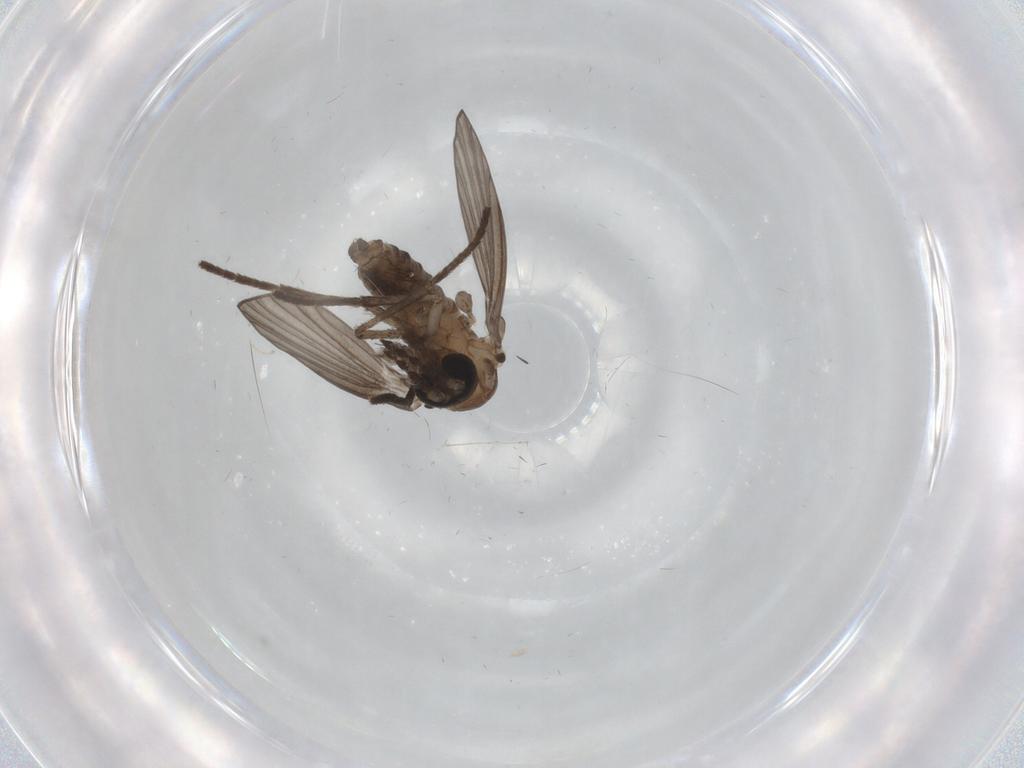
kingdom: Animalia
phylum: Arthropoda
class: Insecta
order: Diptera
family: Psychodidae
